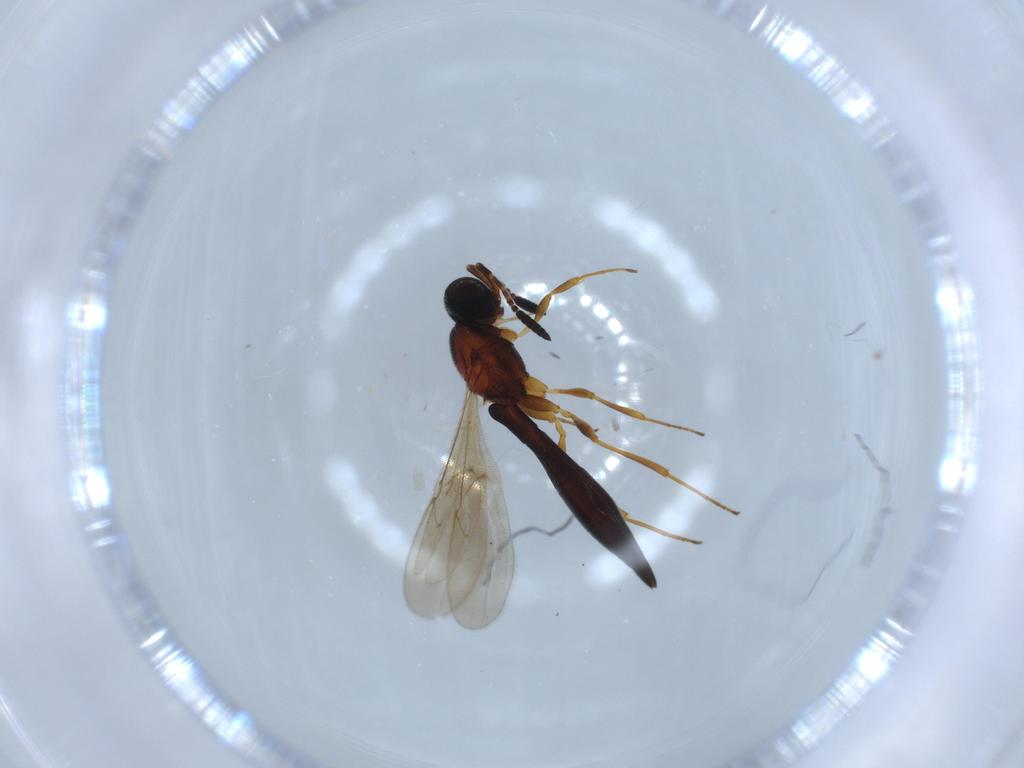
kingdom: Animalia
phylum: Arthropoda
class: Insecta
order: Hymenoptera
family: Scelionidae
